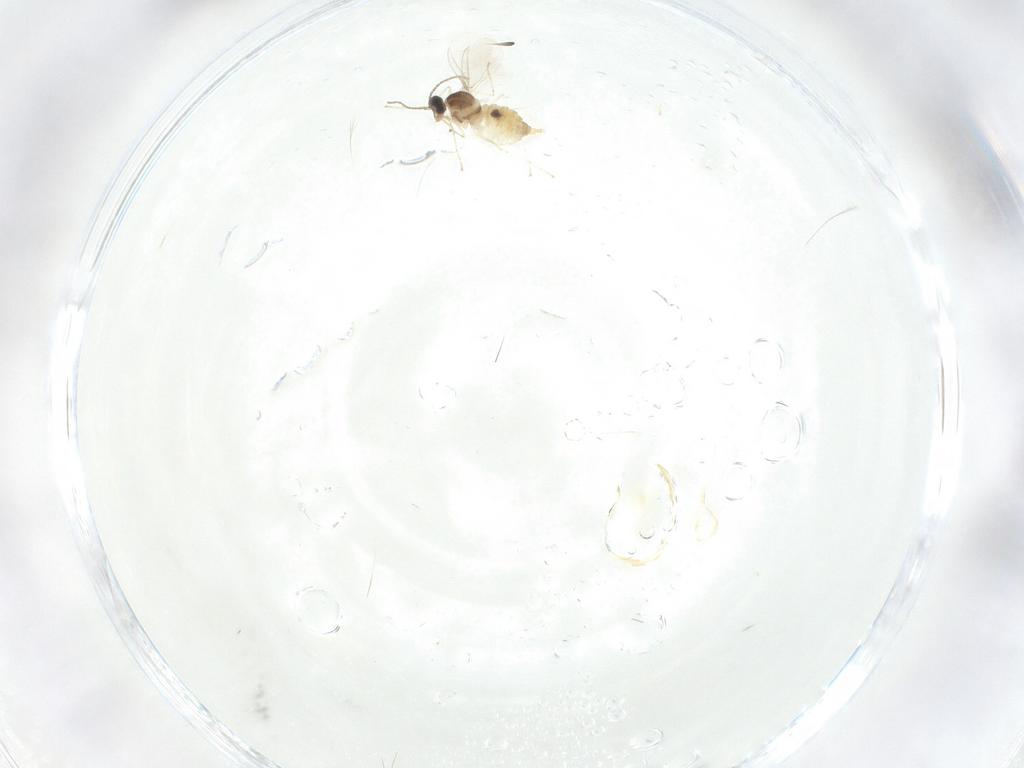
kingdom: Animalia
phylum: Arthropoda
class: Insecta
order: Diptera
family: Cecidomyiidae
